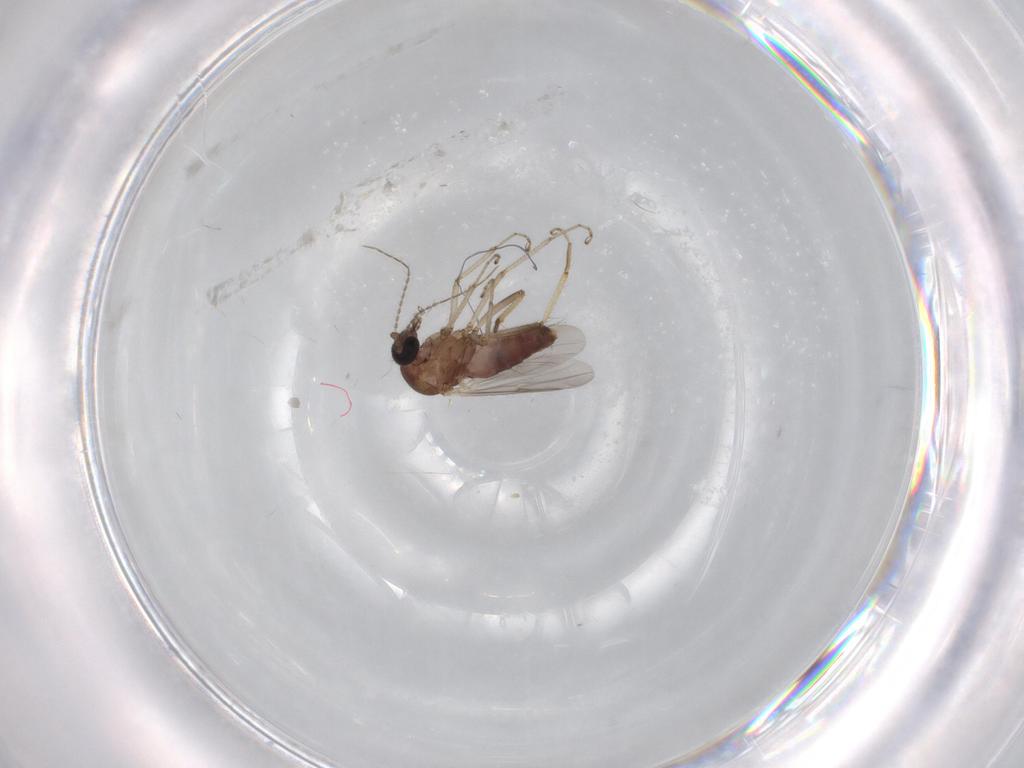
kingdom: Animalia
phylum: Arthropoda
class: Insecta
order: Diptera
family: Ceratopogonidae
